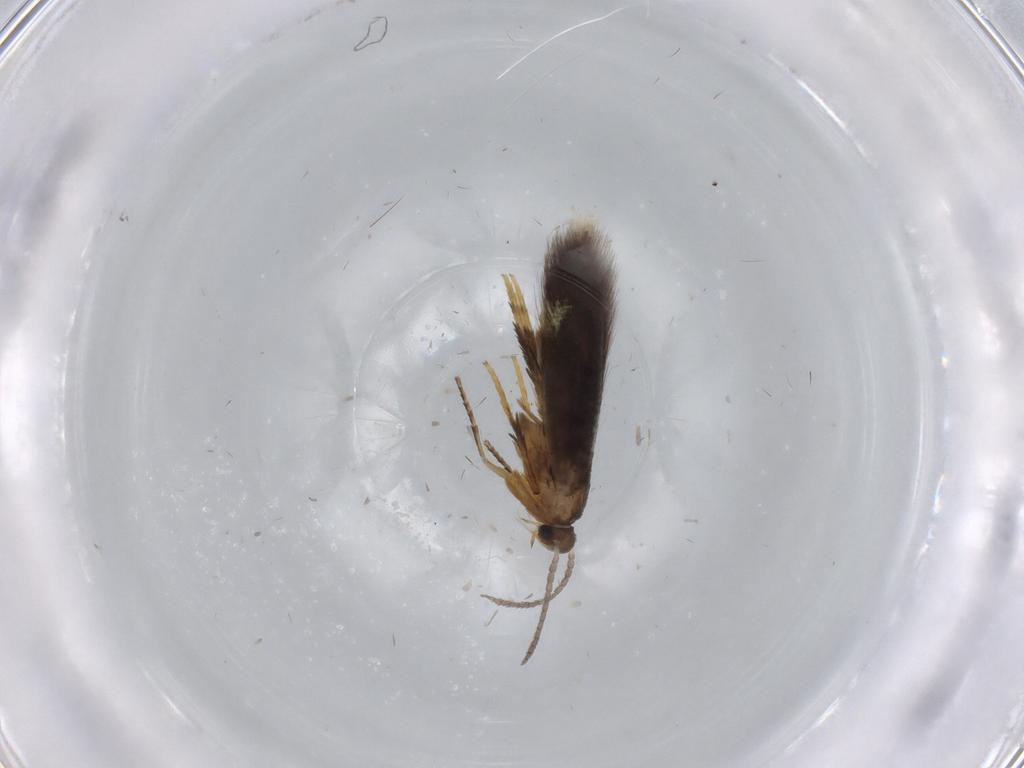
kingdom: Animalia
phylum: Arthropoda
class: Insecta
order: Lepidoptera
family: Heliozelidae
